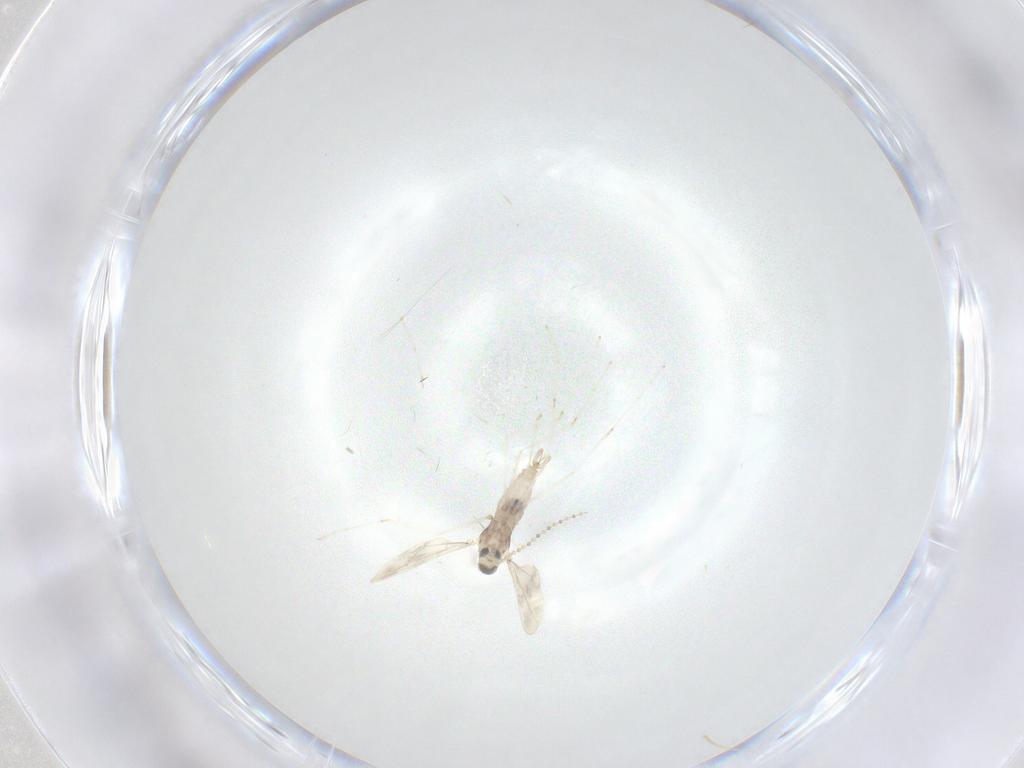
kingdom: Animalia
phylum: Arthropoda
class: Insecta
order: Diptera
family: Cecidomyiidae
